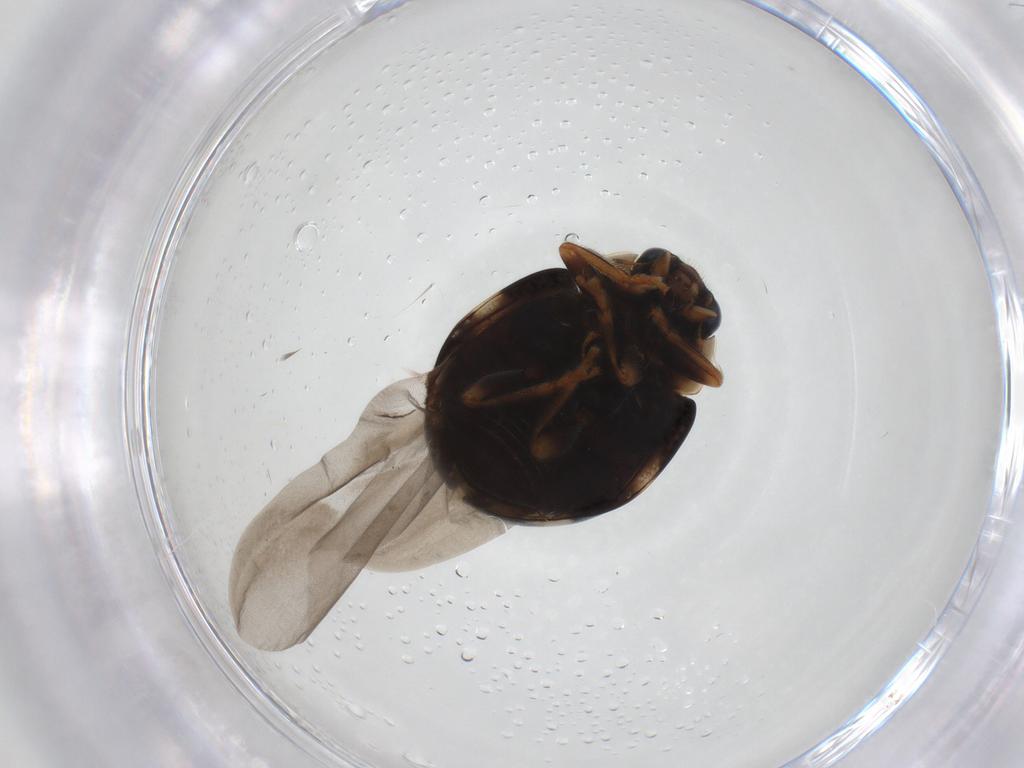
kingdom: Animalia
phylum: Arthropoda
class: Insecta
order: Coleoptera
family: Coccinellidae
